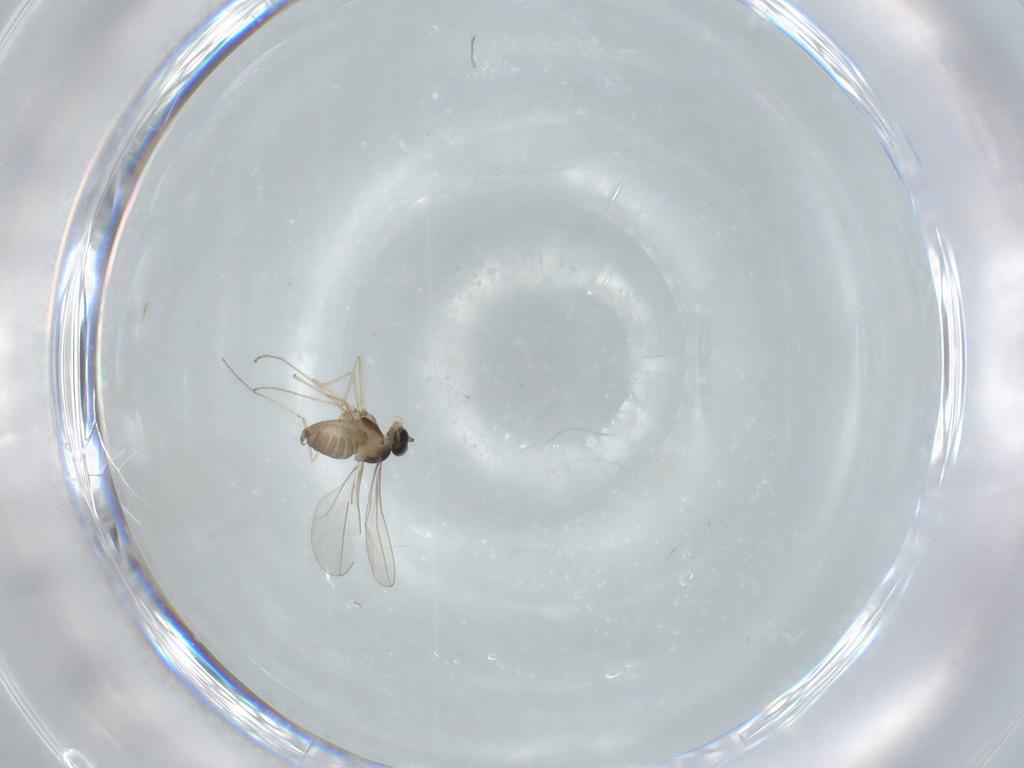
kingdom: Animalia
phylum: Arthropoda
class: Insecta
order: Diptera
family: Cecidomyiidae
